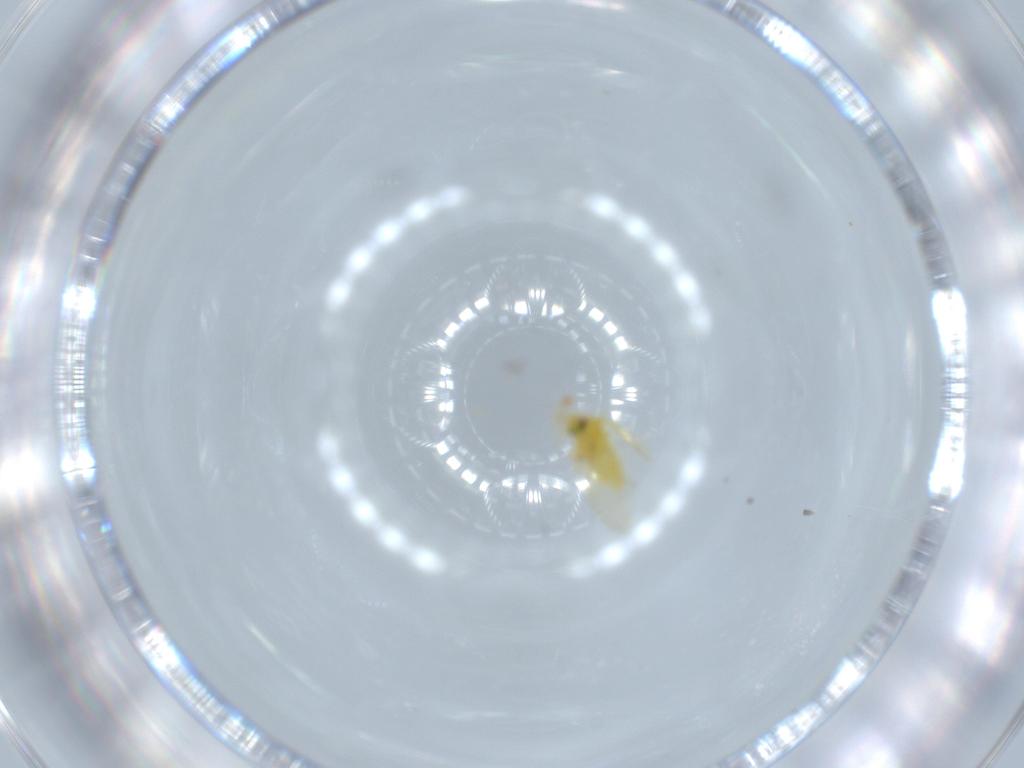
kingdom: Animalia
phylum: Arthropoda
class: Insecta
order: Hemiptera
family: Aleyrodidae
